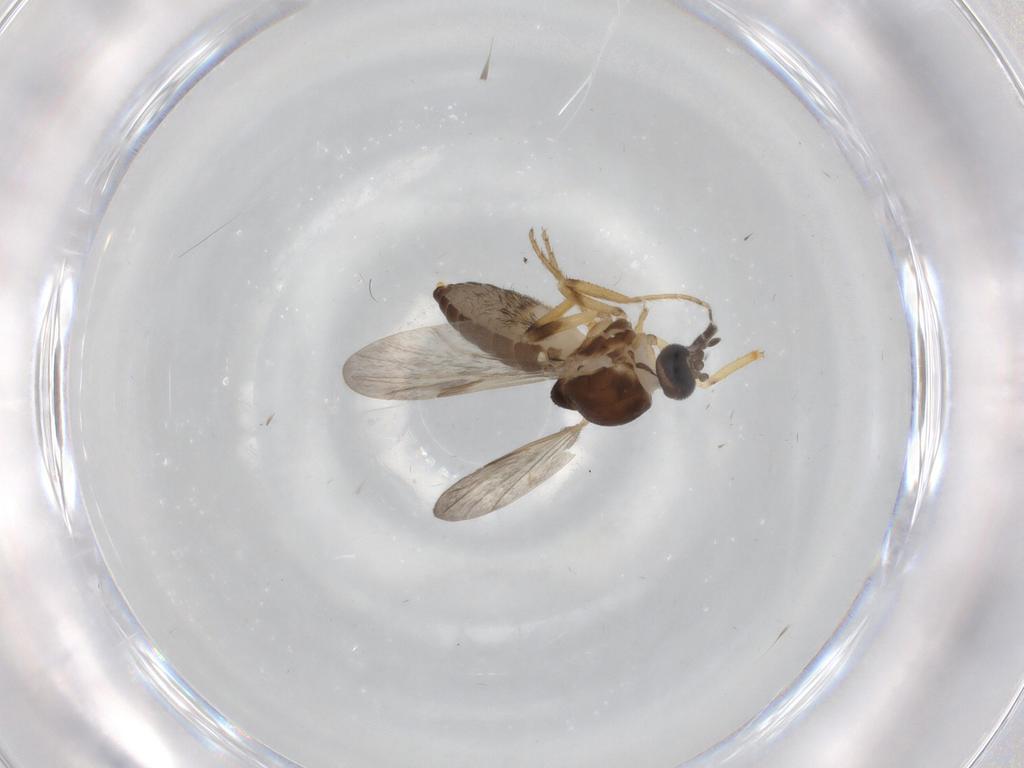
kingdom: Animalia
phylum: Arthropoda
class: Insecta
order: Diptera
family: Cecidomyiidae
